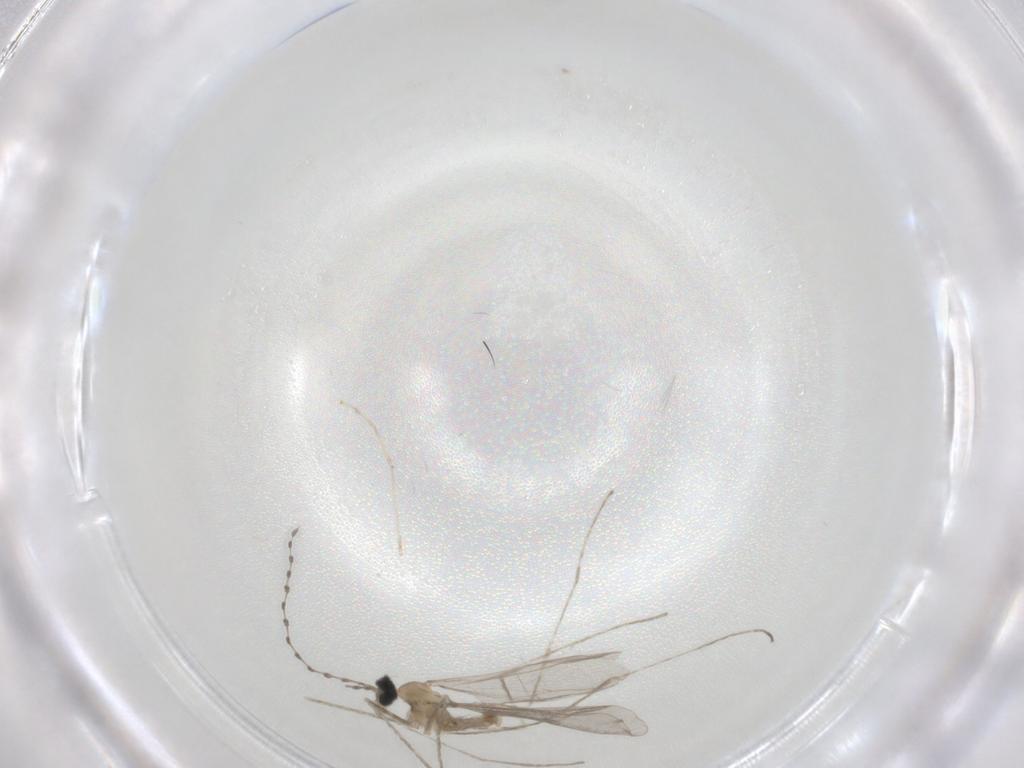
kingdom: Animalia
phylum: Arthropoda
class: Insecta
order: Diptera
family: Cecidomyiidae
